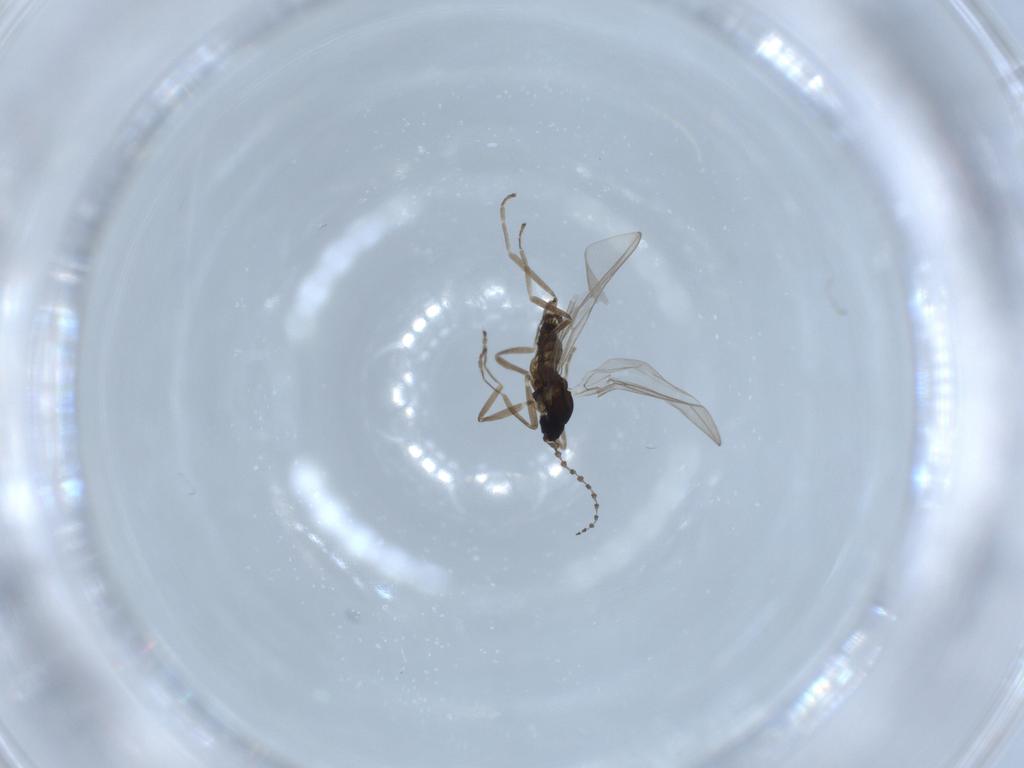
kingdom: Animalia
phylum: Arthropoda
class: Insecta
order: Diptera
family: Cecidomyiidae
